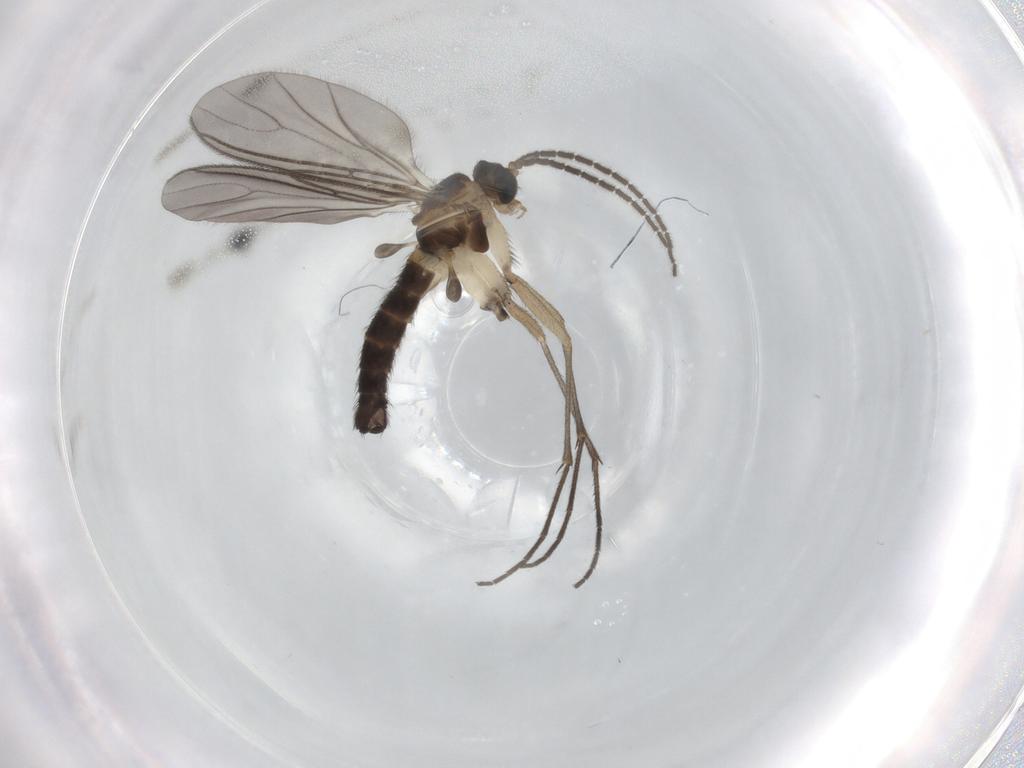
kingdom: Animalia
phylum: Arthropoda
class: Insecta
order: Diptera
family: Sciaridae
